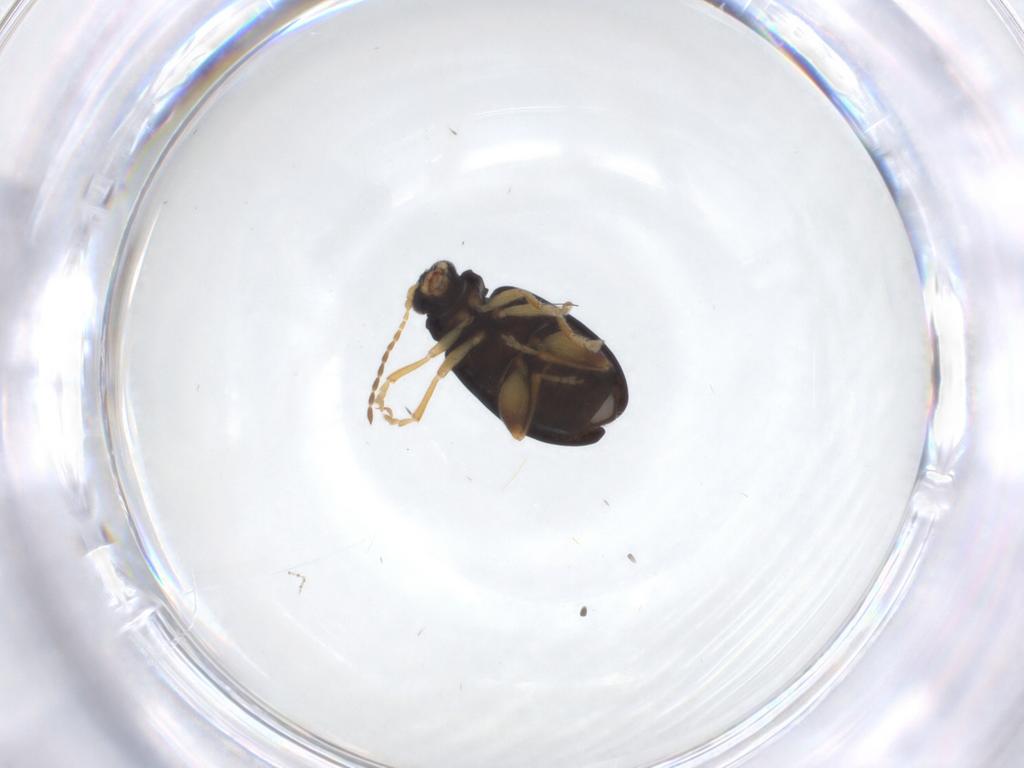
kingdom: Animalia
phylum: Arthropoda
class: Insecta
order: Coleoptera
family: Chrysomelidae
